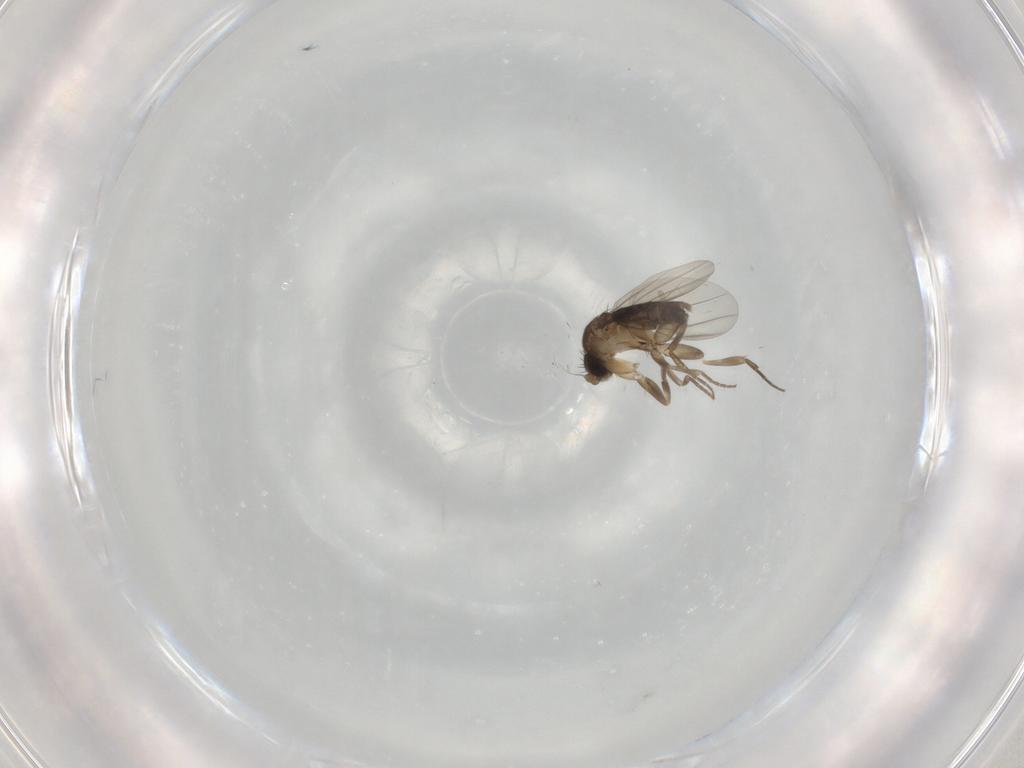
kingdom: Animalia
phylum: Arthropoda
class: Insecta
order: Diptera
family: Phoridae
